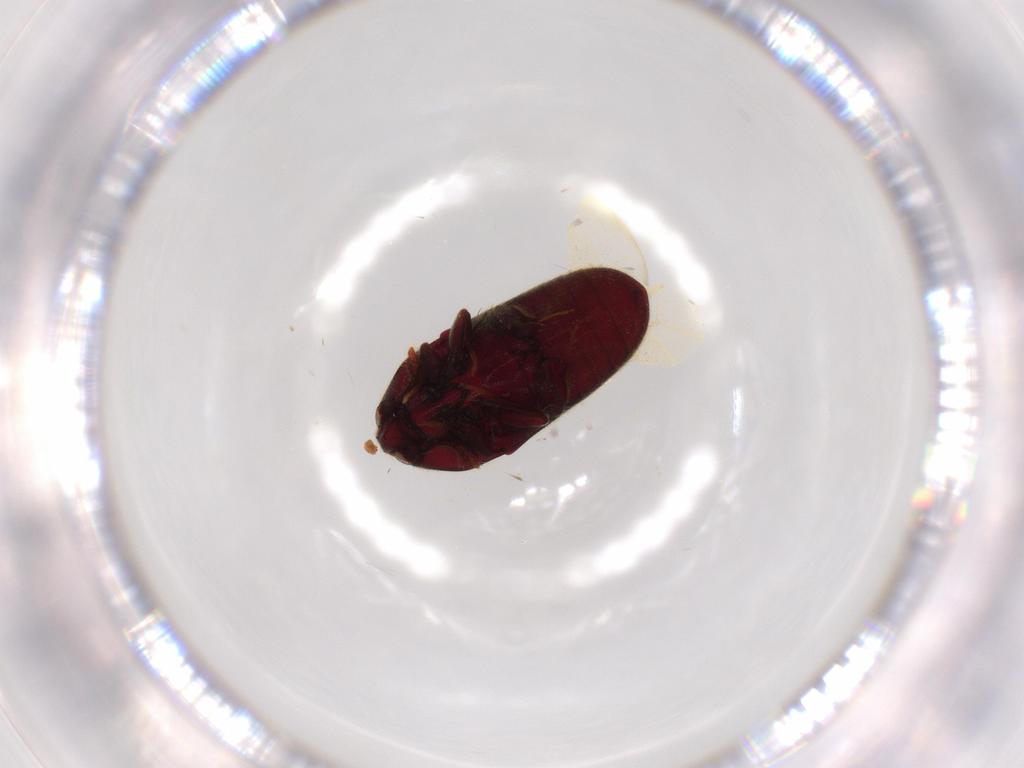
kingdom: Animalia
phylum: Arthropoda
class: Insecta
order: Coleoptera
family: Throscidae
